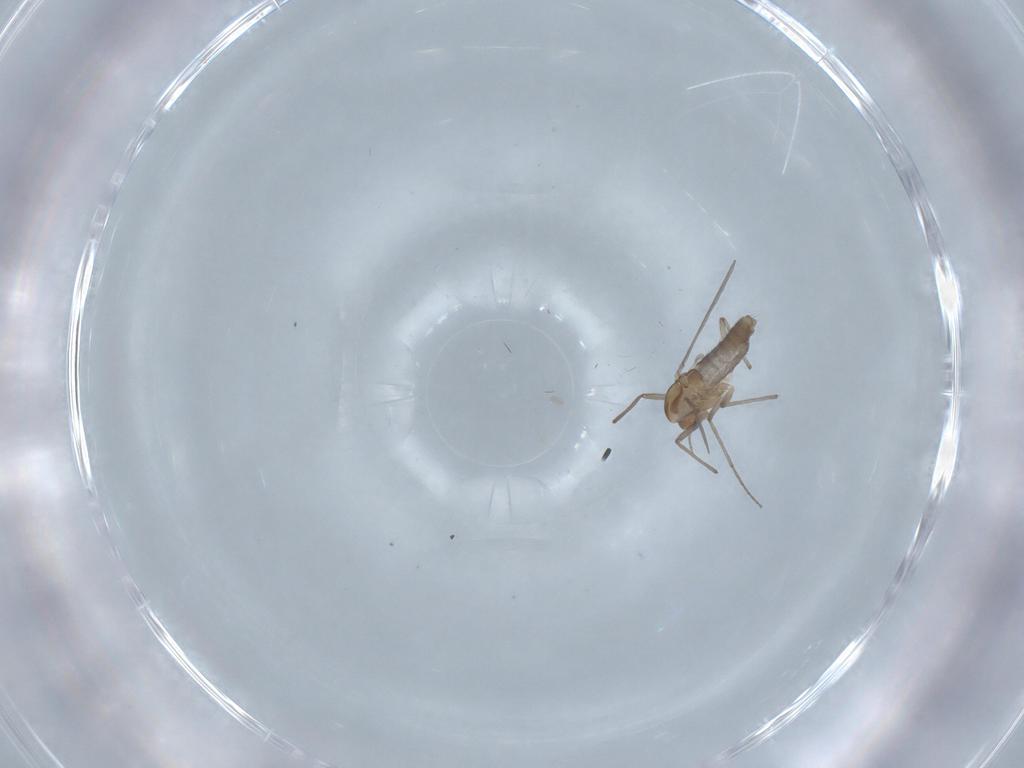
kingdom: Animalia
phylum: Arthropoda
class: Insecta
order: Diptera
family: Chironomidae
